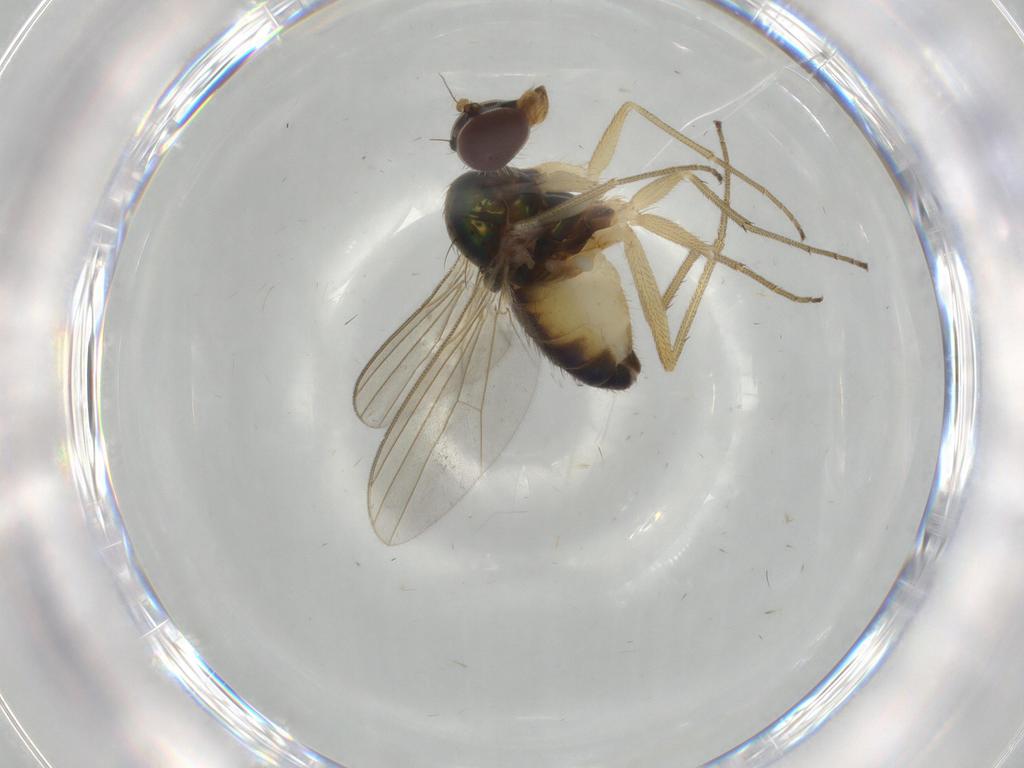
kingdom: Animalia
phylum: Arthropoda
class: Insecta
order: Diptera
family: Dolichopodidae
